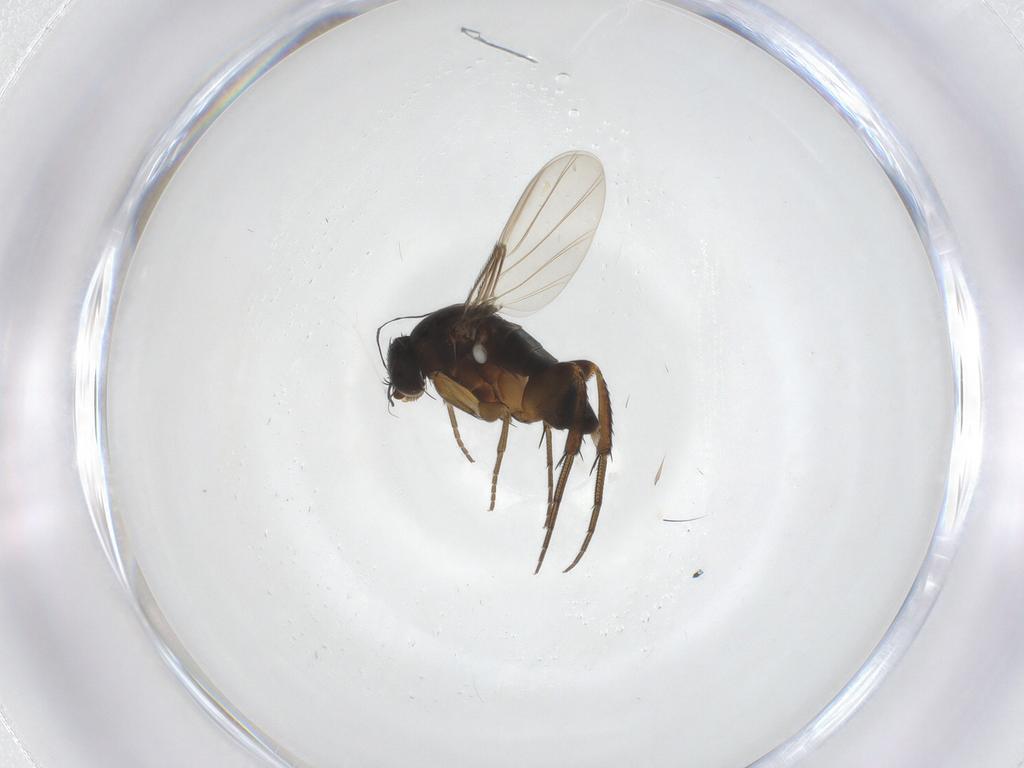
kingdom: Animalia
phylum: Arthropoda
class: Insecta
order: Diptera
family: Phoridae
